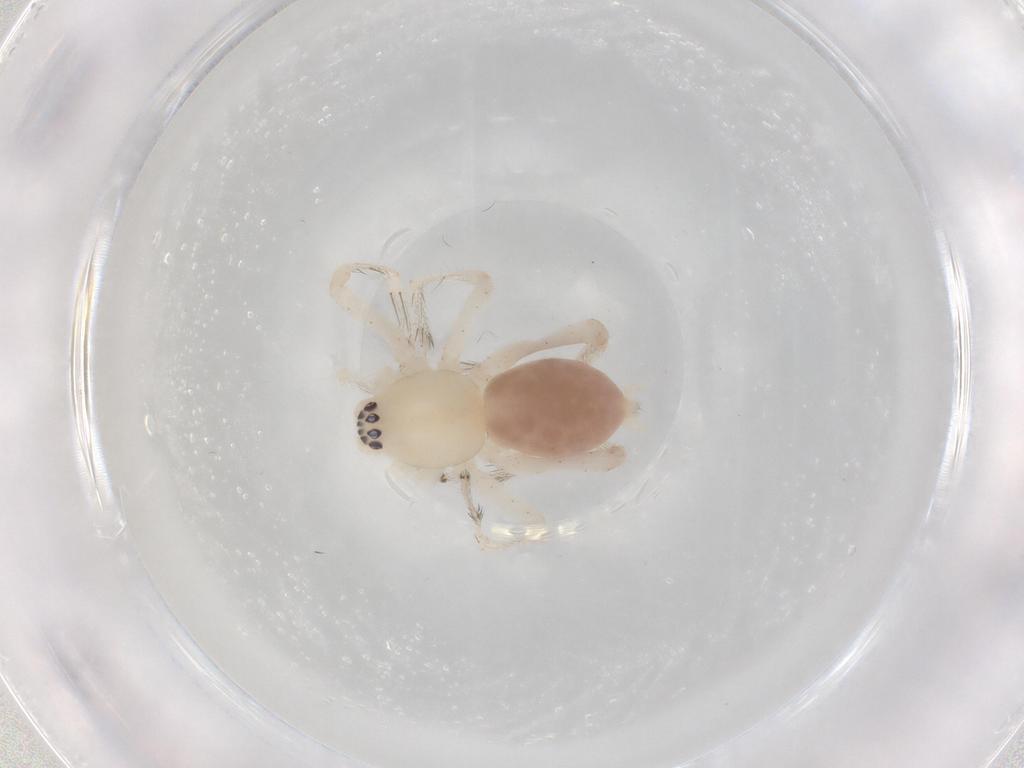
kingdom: Animalia
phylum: Arthropoda
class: Arachnida
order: Araneae
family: Anyphaenidae
